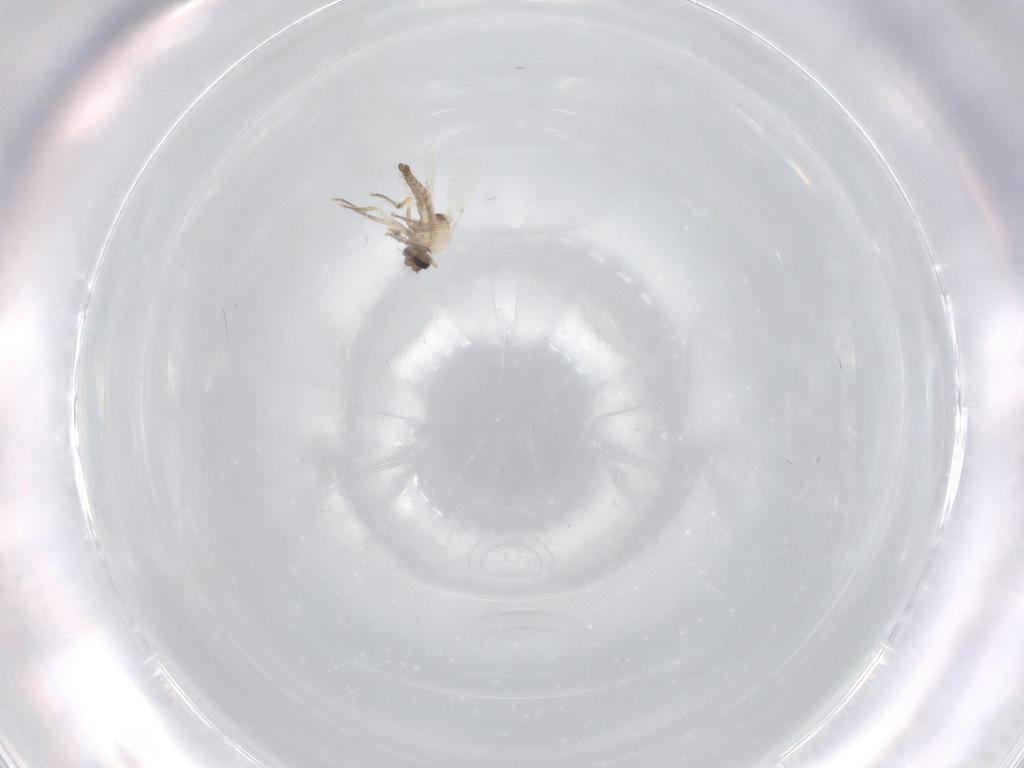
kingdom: Animalia
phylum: Arthropoda
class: Insecta
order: Diptera
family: Ceratopogonidae
